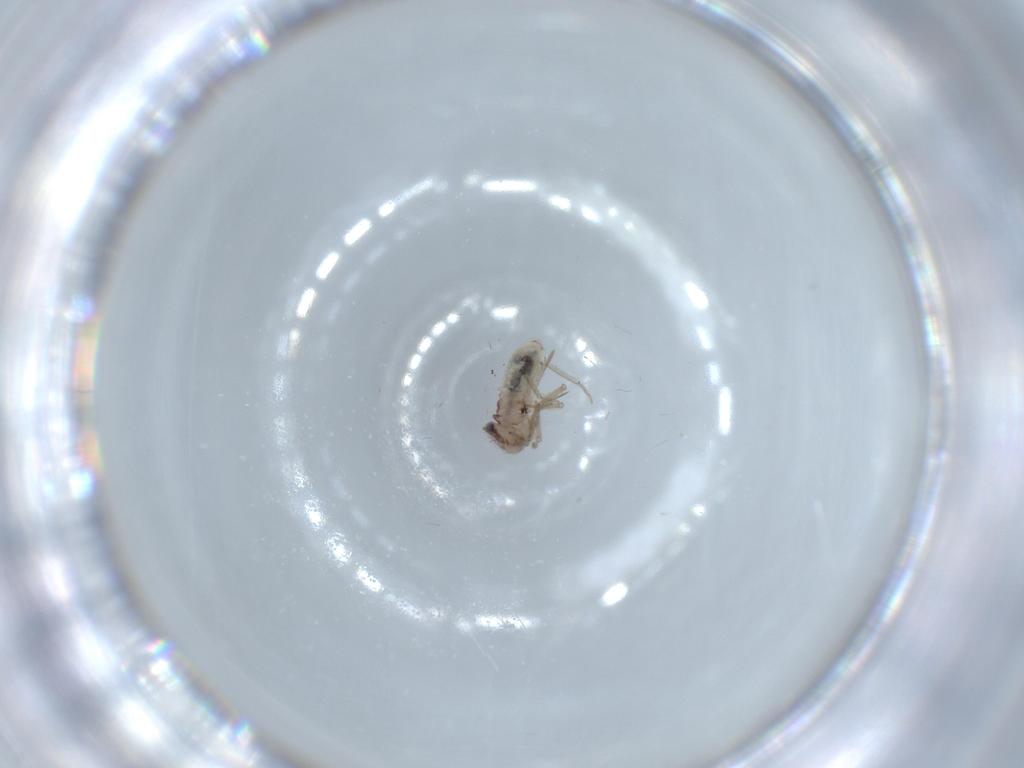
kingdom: Animalia
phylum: Arthropoda
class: Insecta
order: Psocodea
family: Lepidopsocidae
